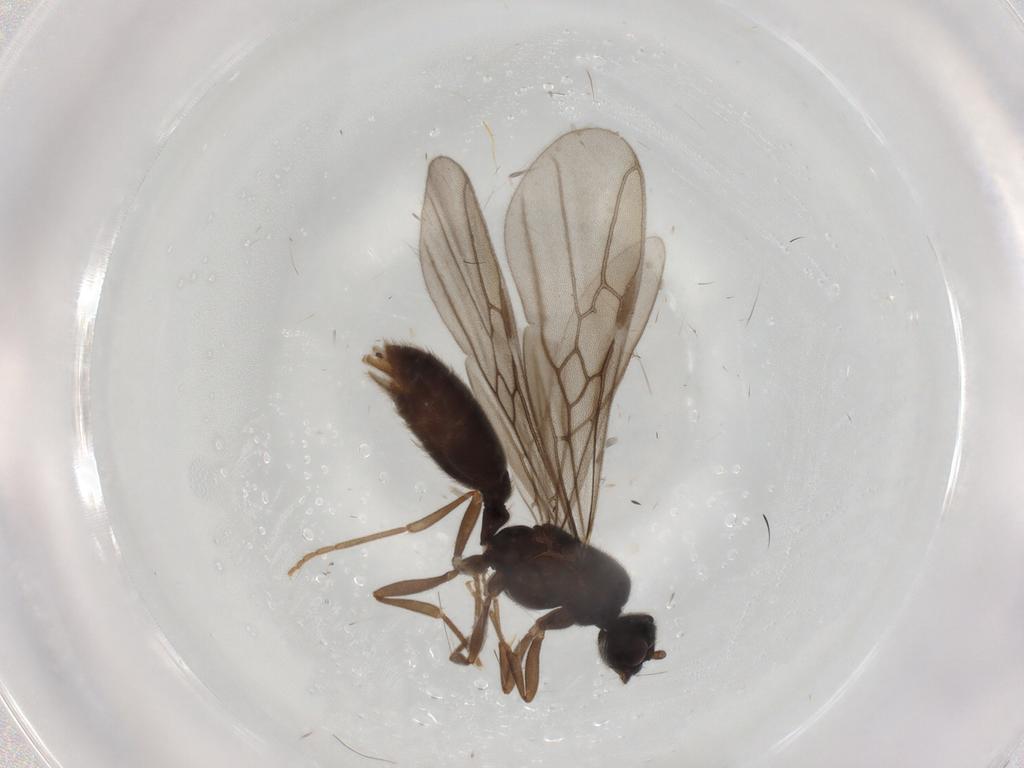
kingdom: Animalia
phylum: Arthropoda
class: Insecta
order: Hymenoptera
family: Formicidae
